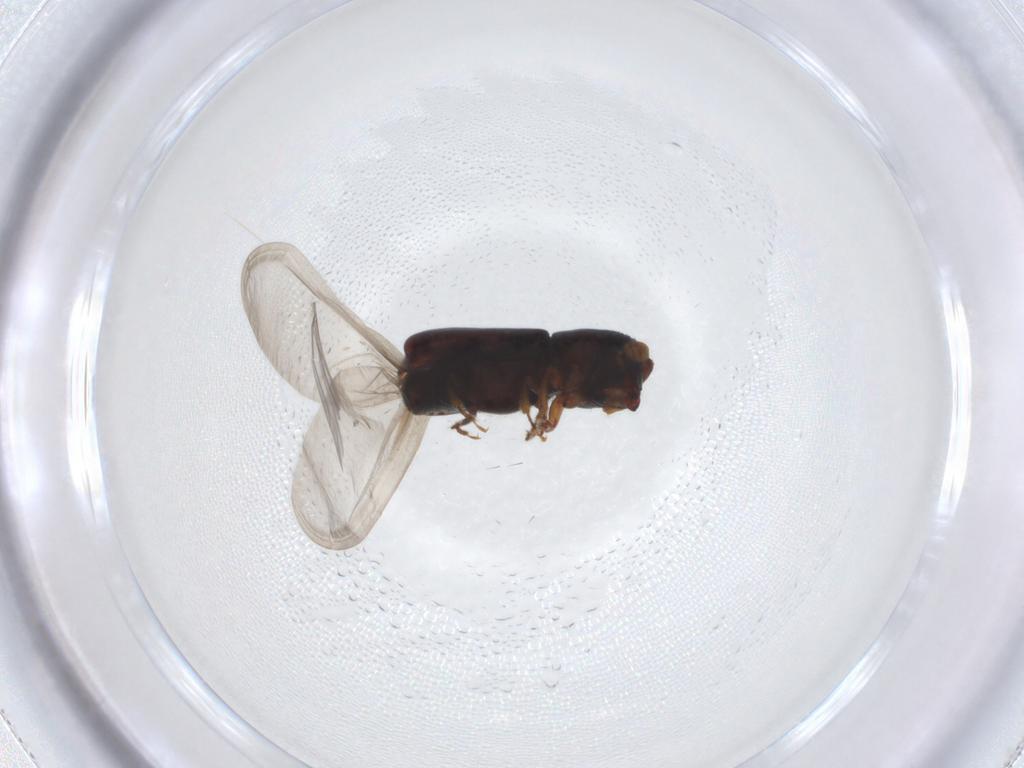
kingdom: Animalia
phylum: Arthropoda
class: Insecta
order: Coleoptera
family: Curculionidae
